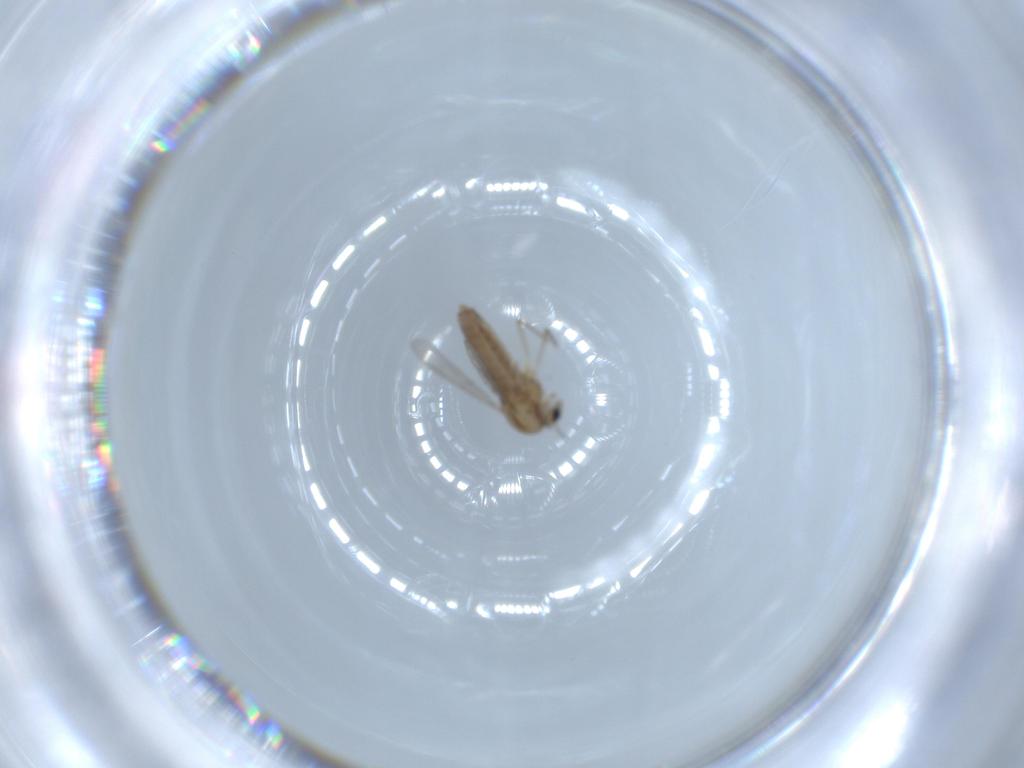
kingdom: Animalia
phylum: Arthropoda
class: Insecta
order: Diptera
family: Chironomidae
